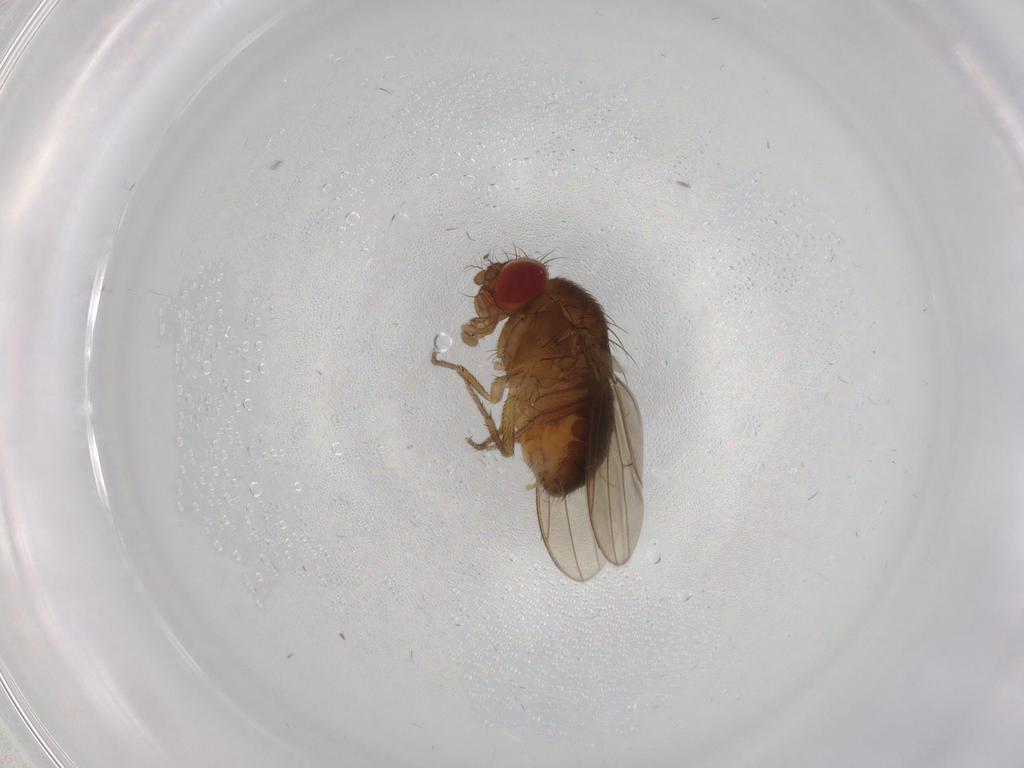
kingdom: Animalia
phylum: Arthropoda
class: Insecta
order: Diptera
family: Drosophilidae
